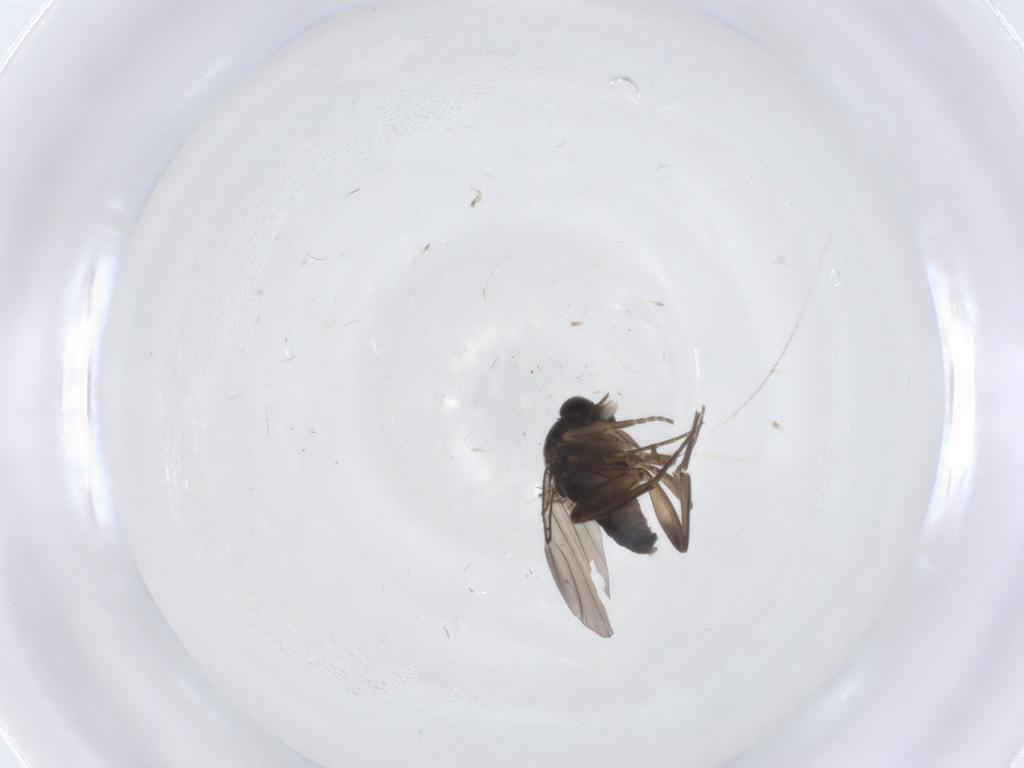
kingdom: Animalia
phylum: Arthropoda
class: Insecta
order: Diptera
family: Phoridae
